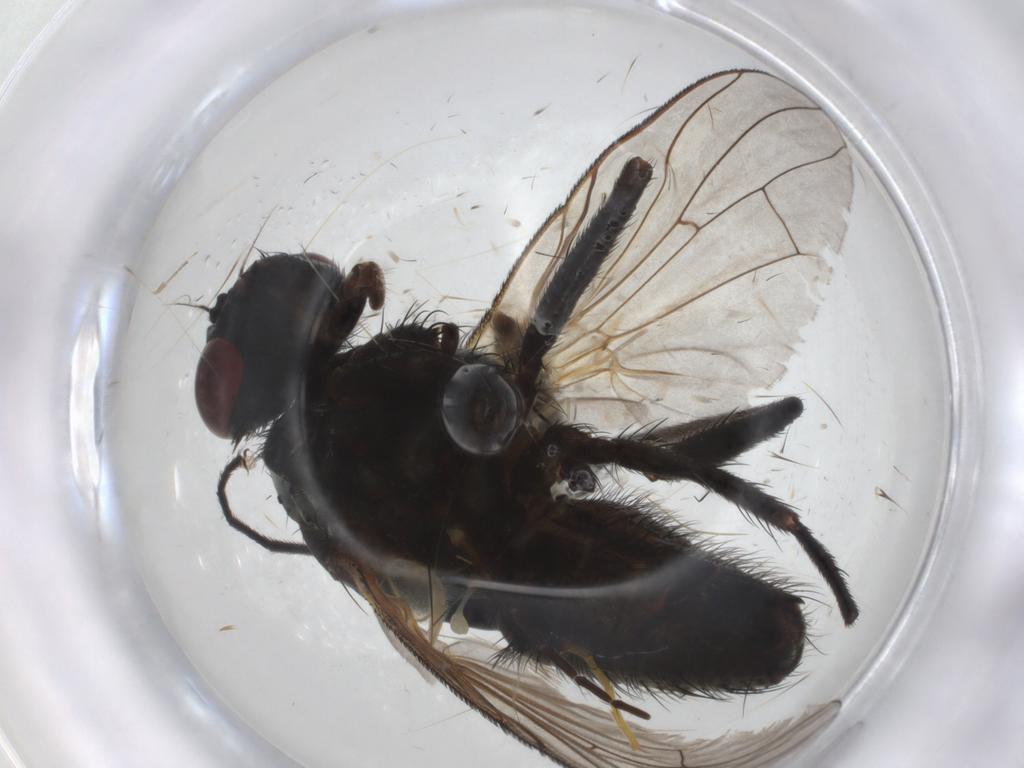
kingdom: Animalia
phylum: Arthropoda
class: Insecta
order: Diptera
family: Muscidae
